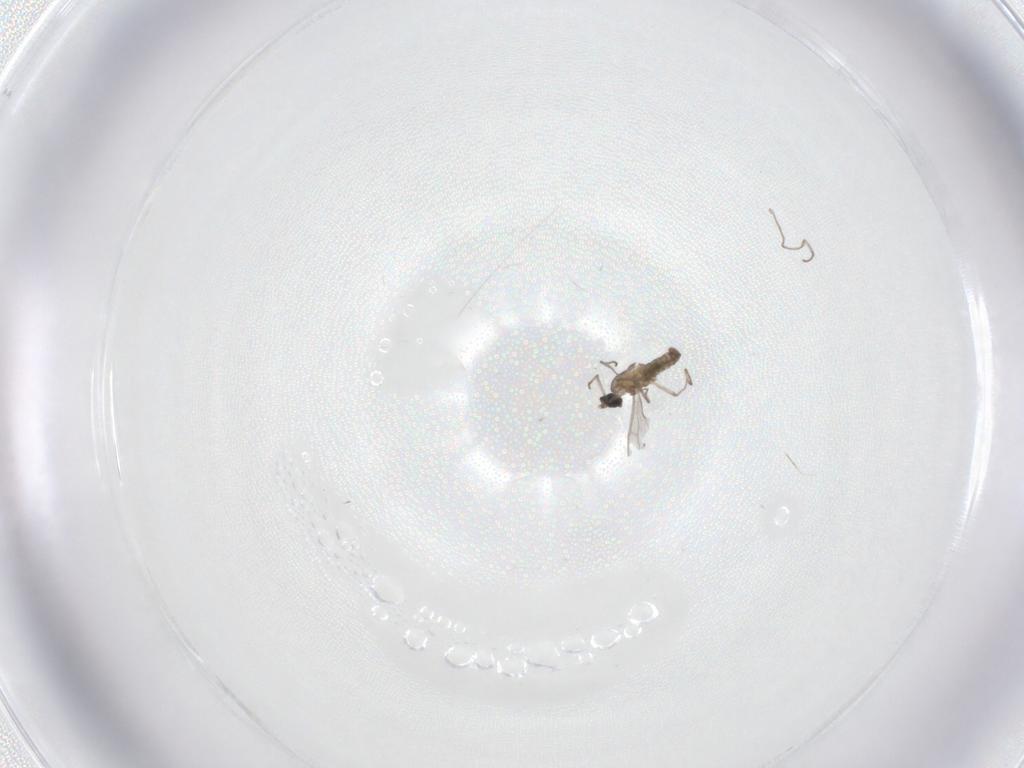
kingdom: Animalia
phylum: Arthropoda
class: Insecta
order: Diptera
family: Cecidomyiidae
